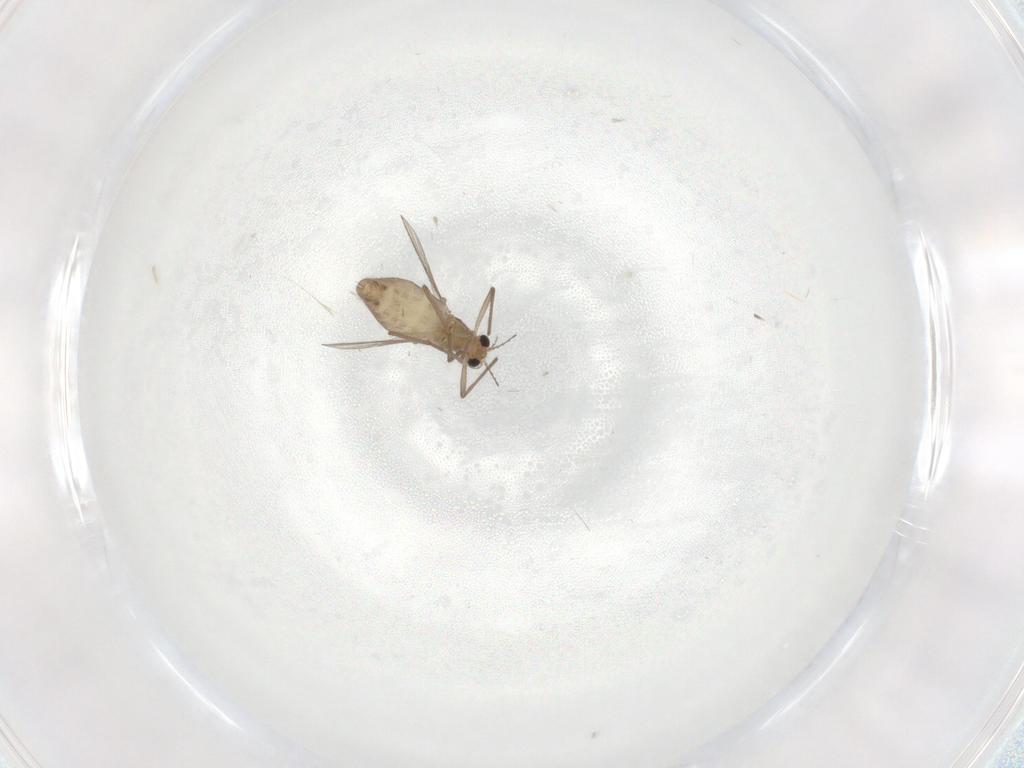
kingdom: Animalia
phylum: Arthropoda
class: Insecta
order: Diptera
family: Chironomidae
